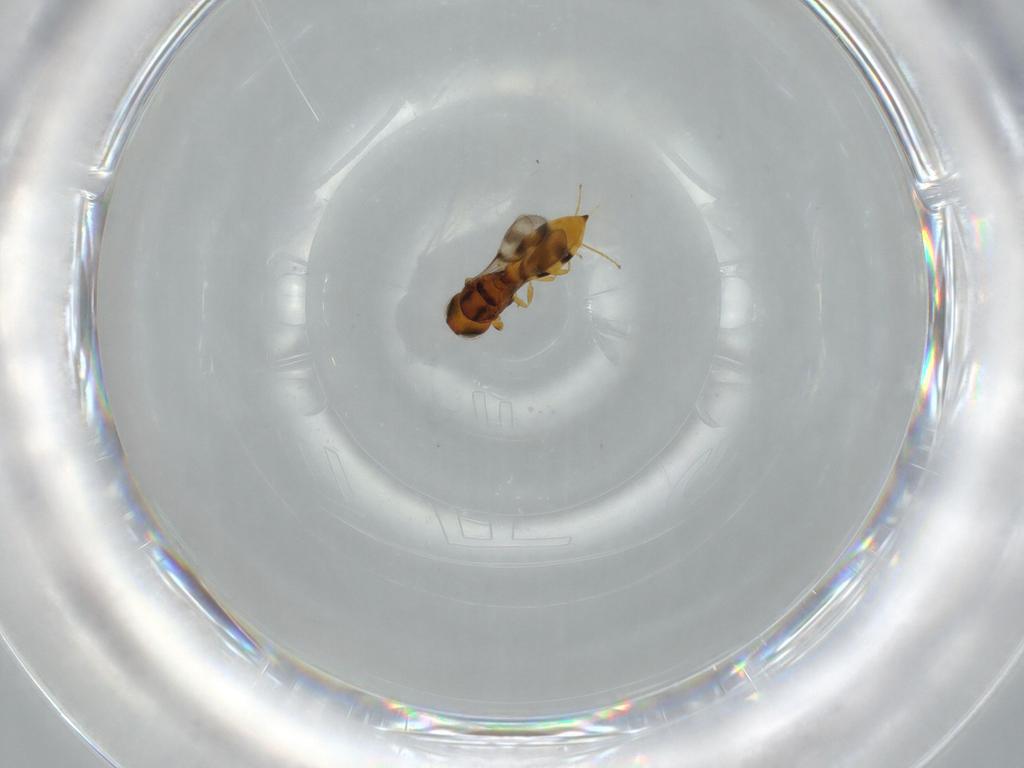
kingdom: Animalia
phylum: Arthropoda
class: Insecta
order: Hymenoptera
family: Scelionidae
